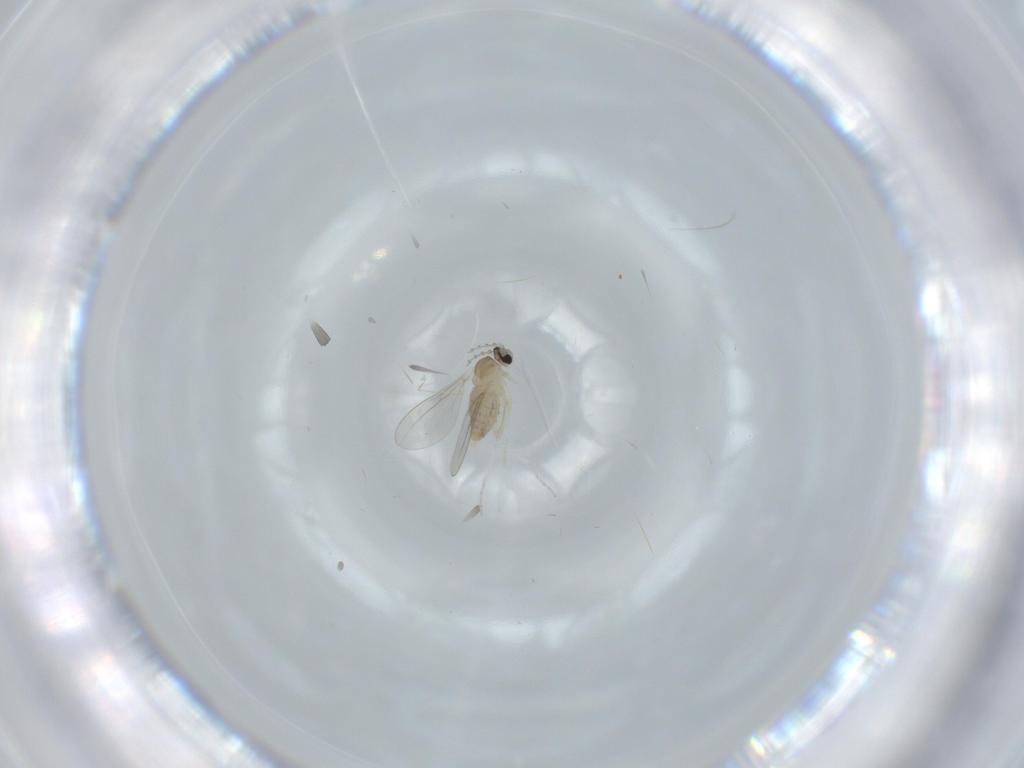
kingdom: Animalia
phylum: Arthropoda
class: Insecta
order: Diptera
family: Cecidomyiidae
